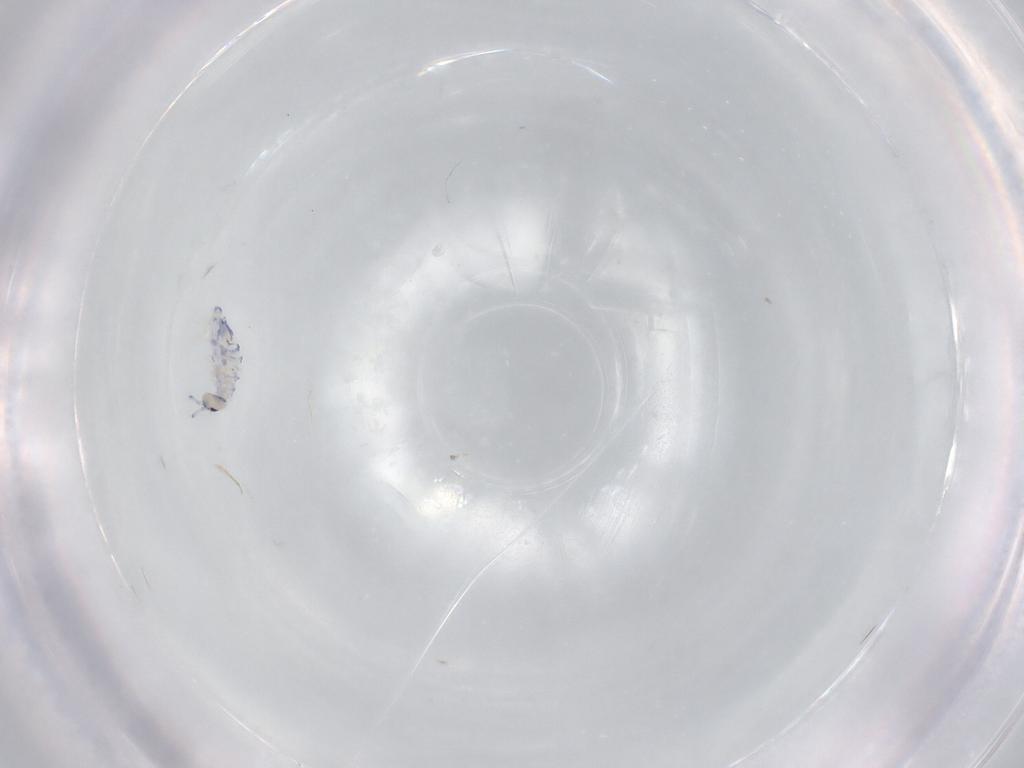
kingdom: Animalia
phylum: Arthropoda
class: Collembola
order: Entomobryomorpha
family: Entomobryidae
